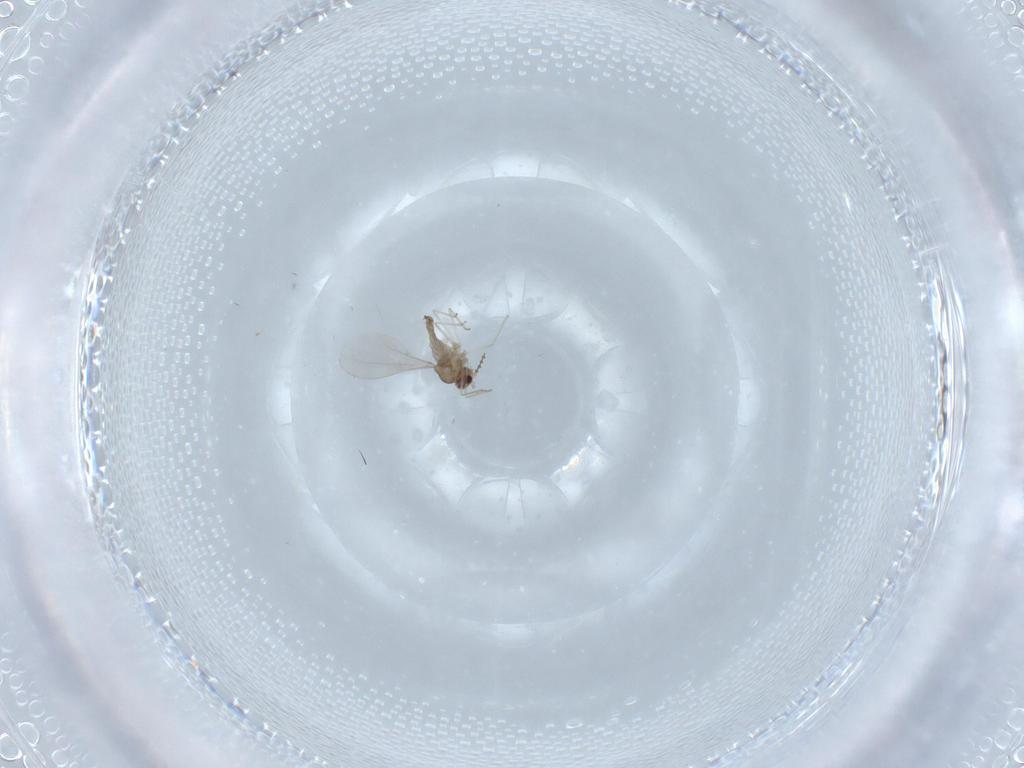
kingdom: Animalia
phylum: Arthropoda
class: Insecta
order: Diptera
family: Cecidomyiidae
